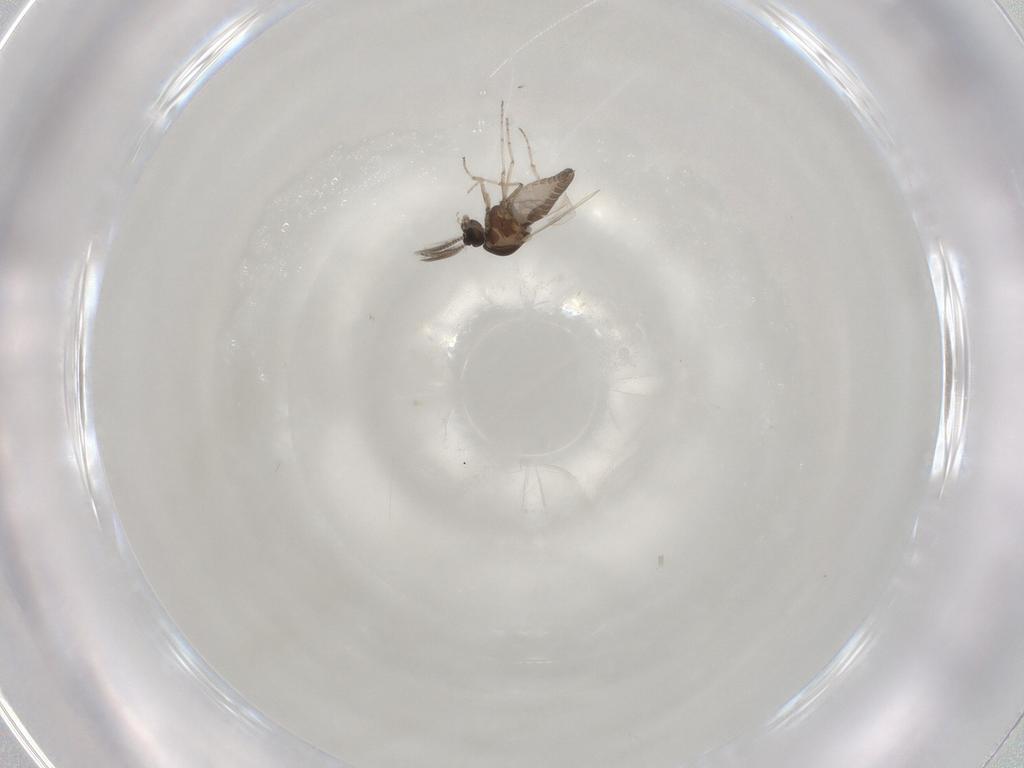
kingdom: Animalia
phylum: Arthropoda
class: Insecta
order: Diptera
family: Ceratopogonidae
